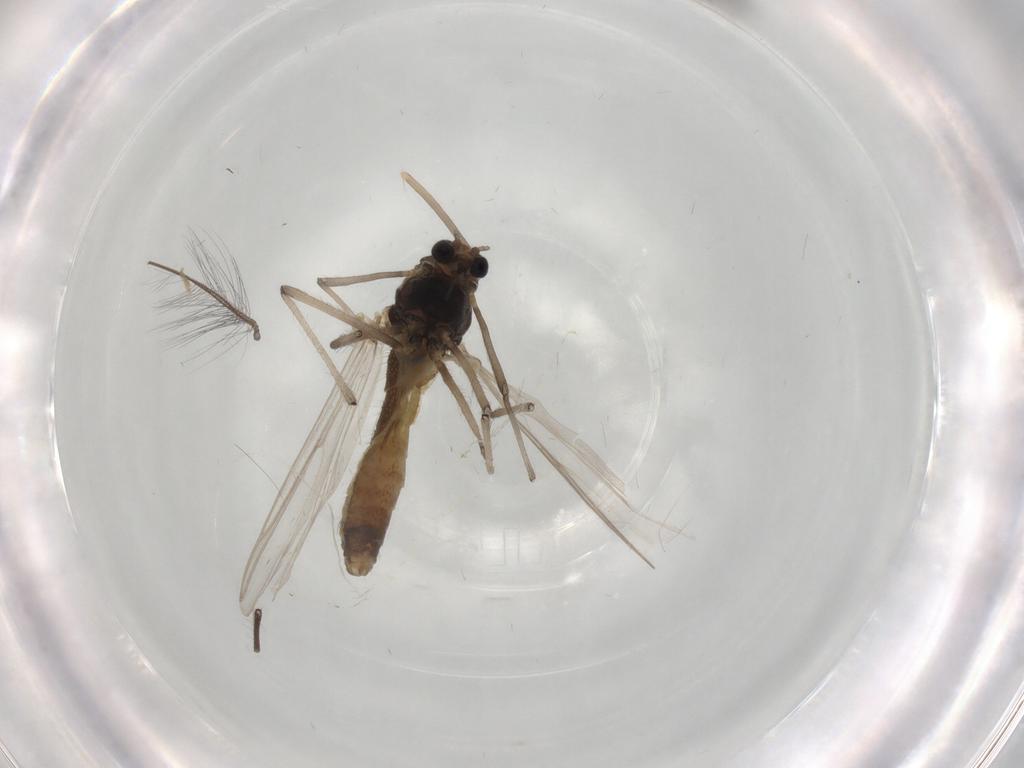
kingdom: Animalia
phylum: Arthropoda
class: Insecta
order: Diptera
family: Chironomidae
